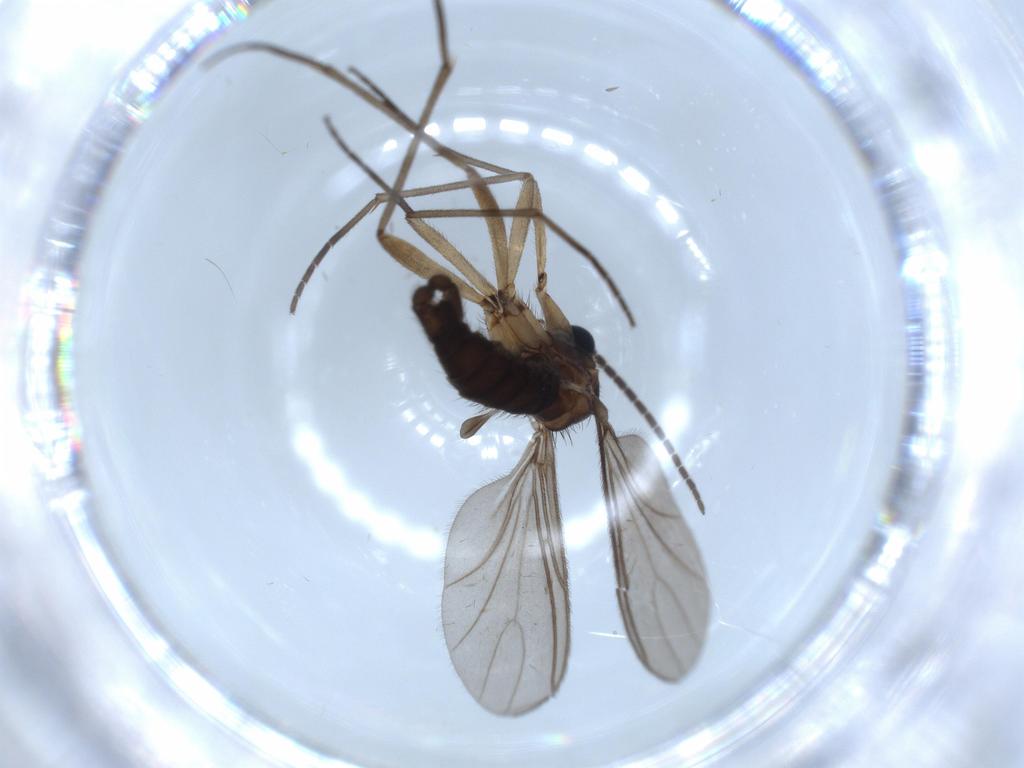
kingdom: Animalia
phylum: Arthropoda
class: Insecta
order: Diptera
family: Sciaridae
